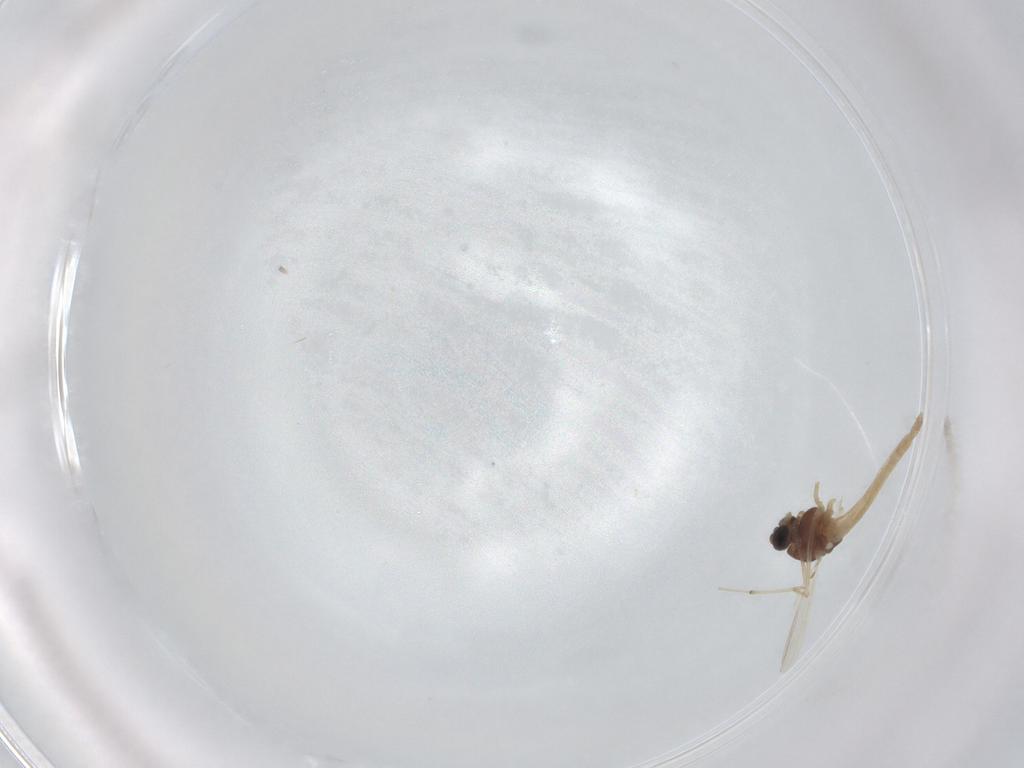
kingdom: Animalia
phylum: Arthropoda
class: Insecta
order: Diptera
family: Chironomidae
